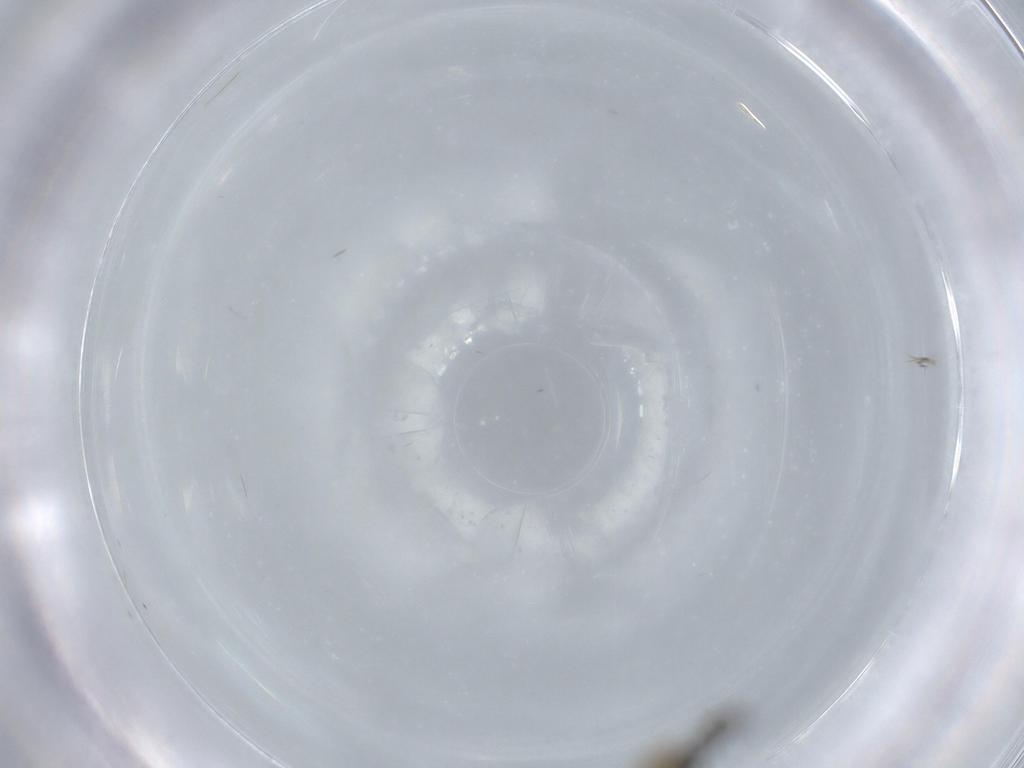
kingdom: Animalia
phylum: Arthropoda
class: Insecta
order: Diptera
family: Cecidomyiidae
